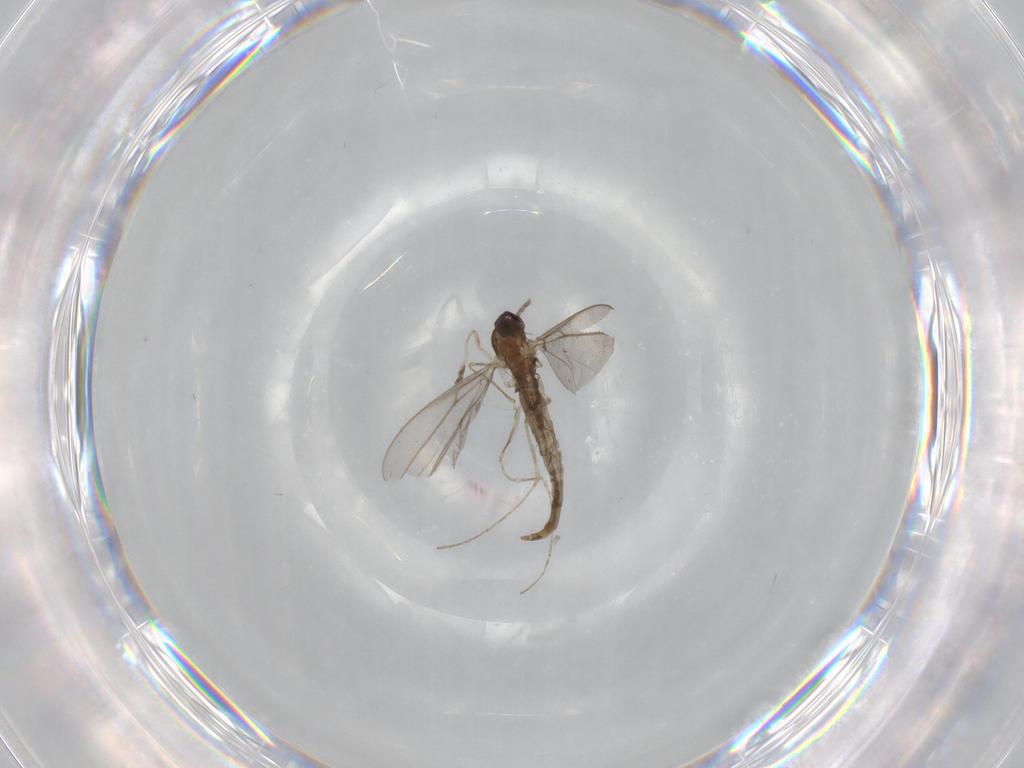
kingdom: Animalia
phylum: Arthropoda
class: Insecta
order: Diptera
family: Cecidomyiidae
